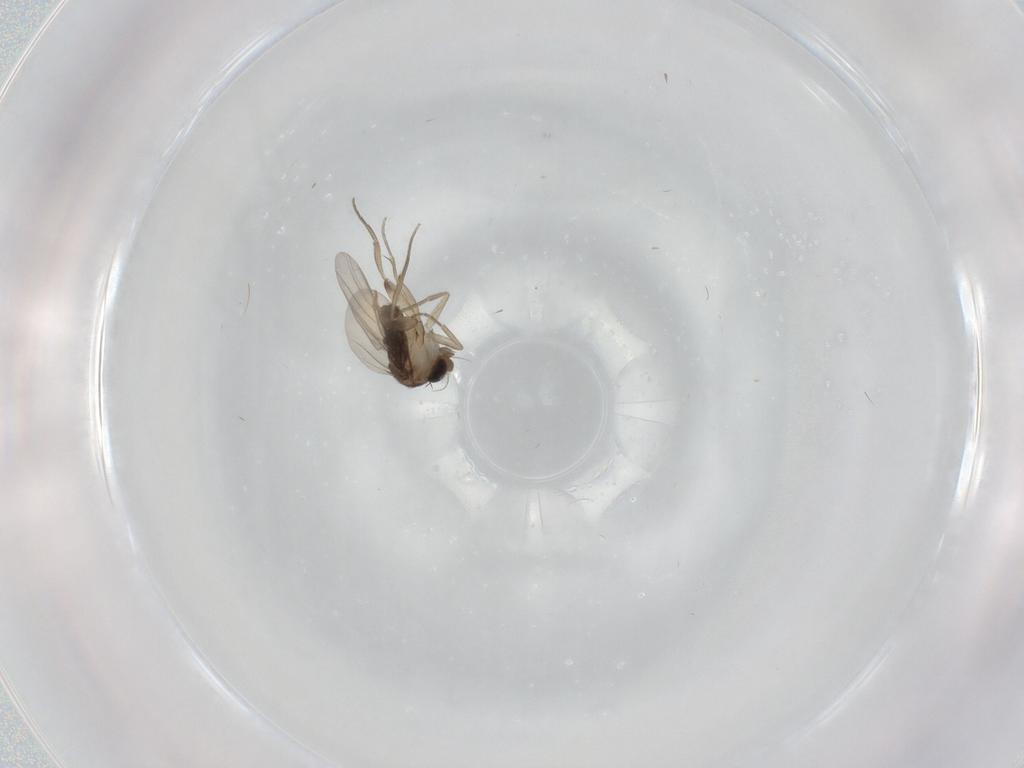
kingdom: Animalia
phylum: Arthropoda
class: Insecta
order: Diptera
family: Phoridae
